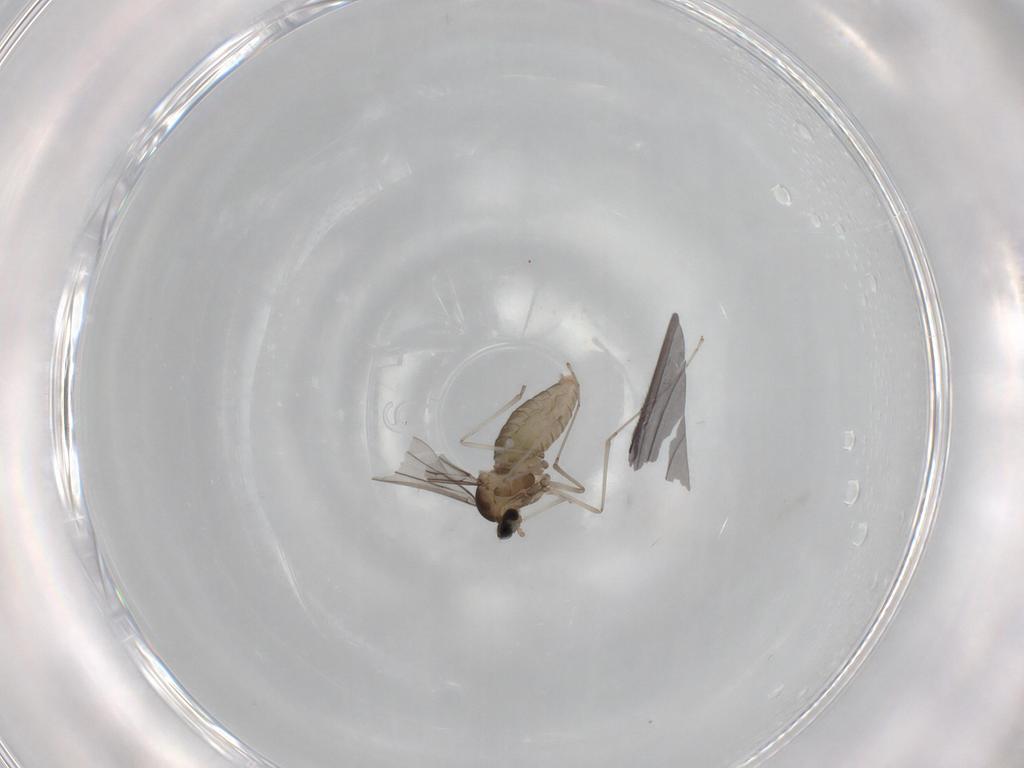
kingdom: Animalia
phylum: Arthropoda
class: Insecta
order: Diptera
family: Cecidomyiidae
